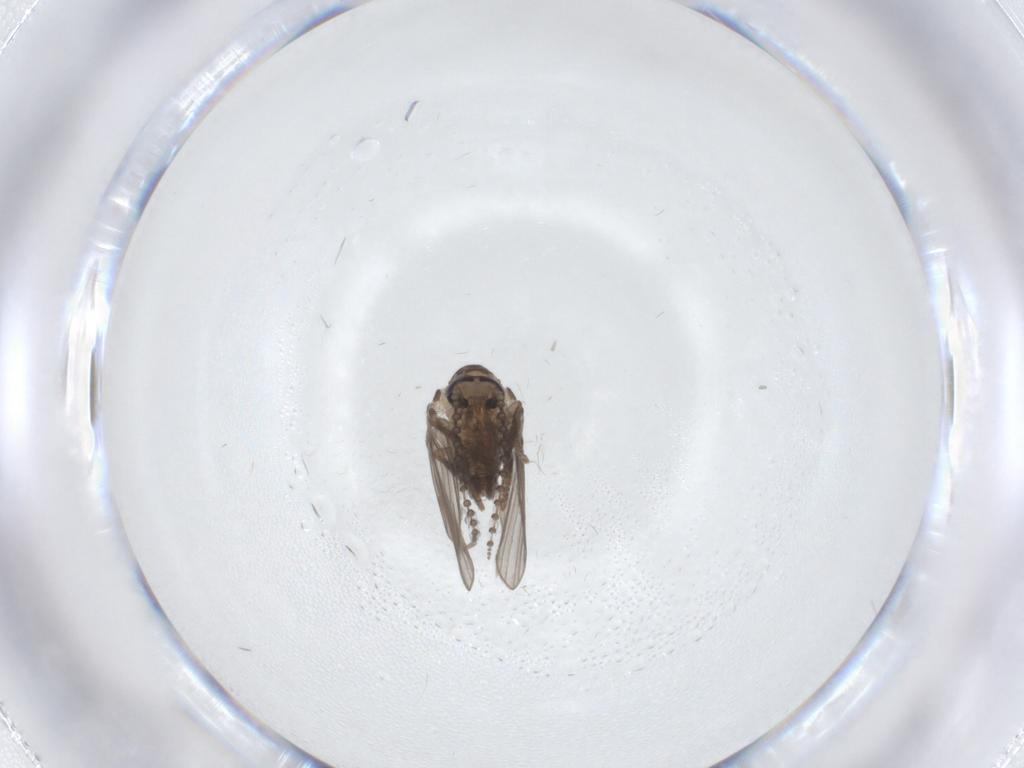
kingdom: Animalia
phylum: Arthropoda
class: Insecta
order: Diptera
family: Psychodidae
